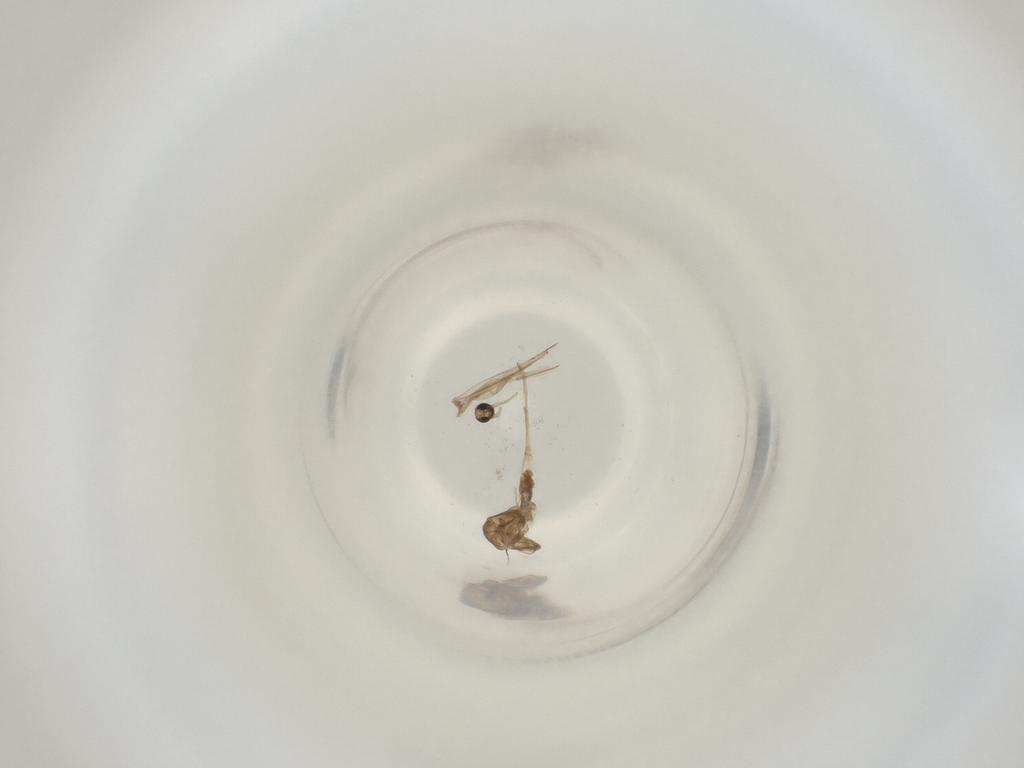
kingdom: Animalia
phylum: Arthropoda
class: Insecta
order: Diptera
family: Cecidomyiidae
